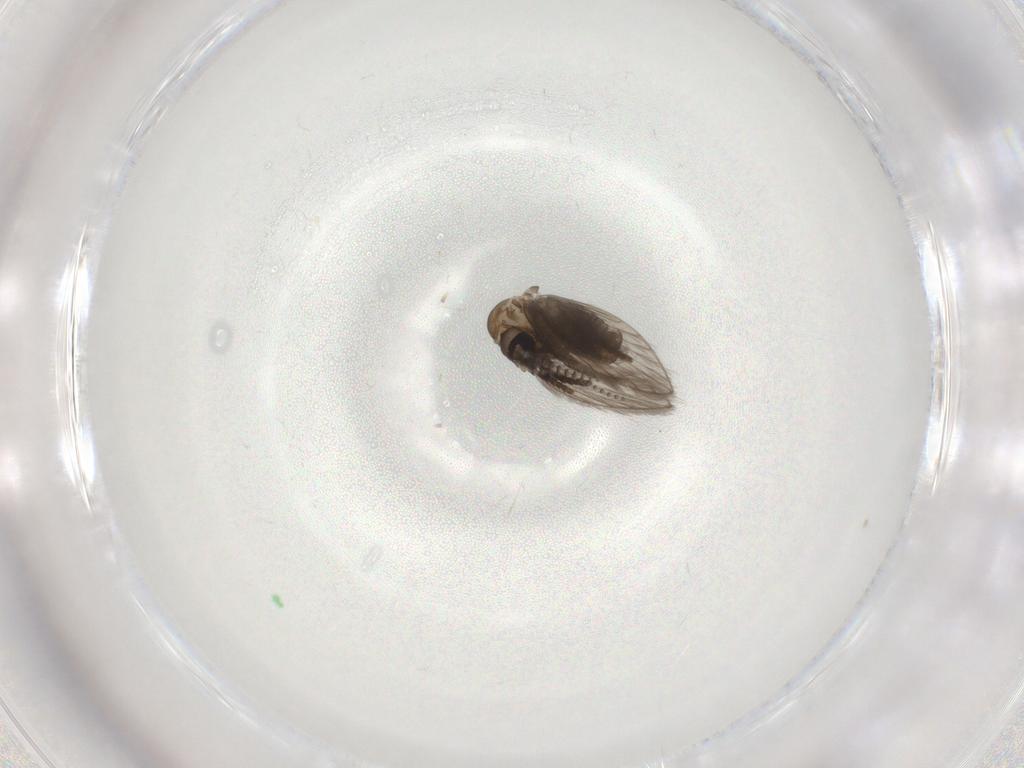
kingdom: Animalia
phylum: Arthropoda
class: Insecta
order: Diptera
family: Psychodidae
